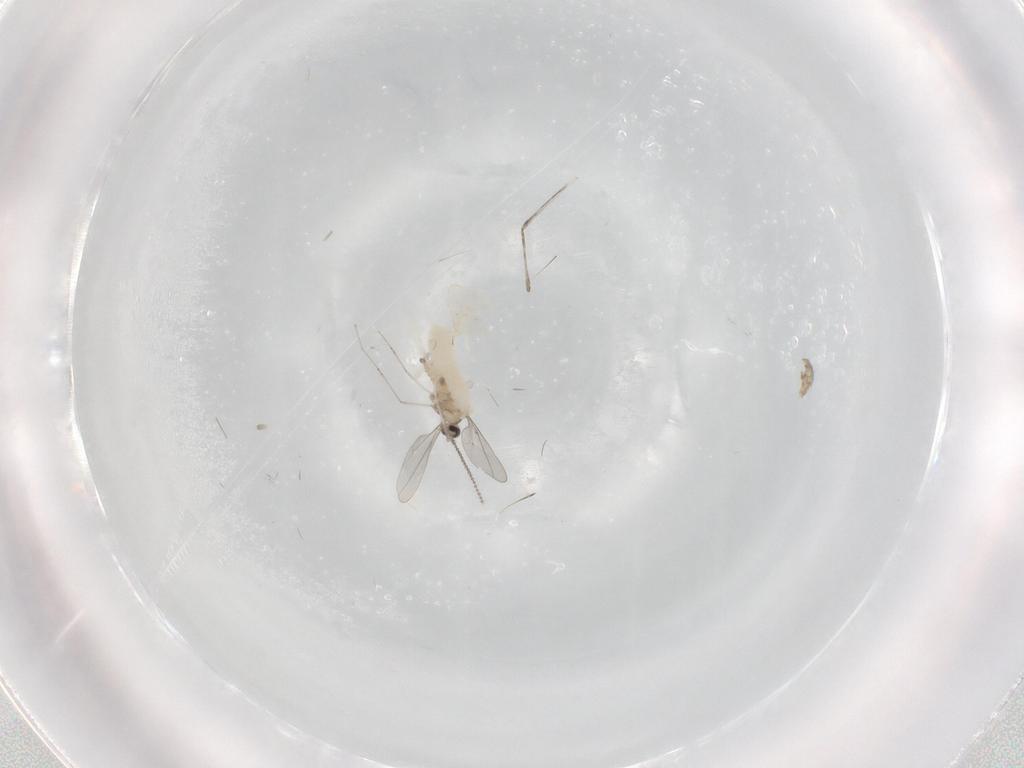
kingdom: Animalia
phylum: Arthropoda
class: Insecta
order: Diptera
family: Cecidomyiidae
